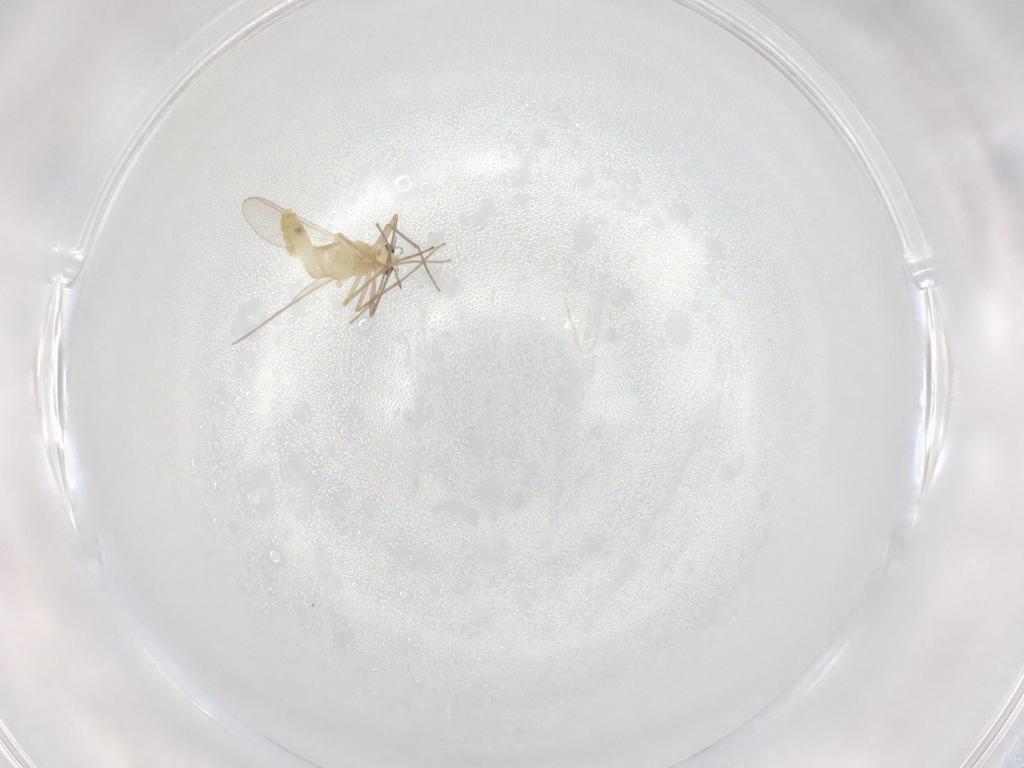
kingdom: Animalia
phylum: Arthropoda
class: Insecta
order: Diptera
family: Chironomidae
